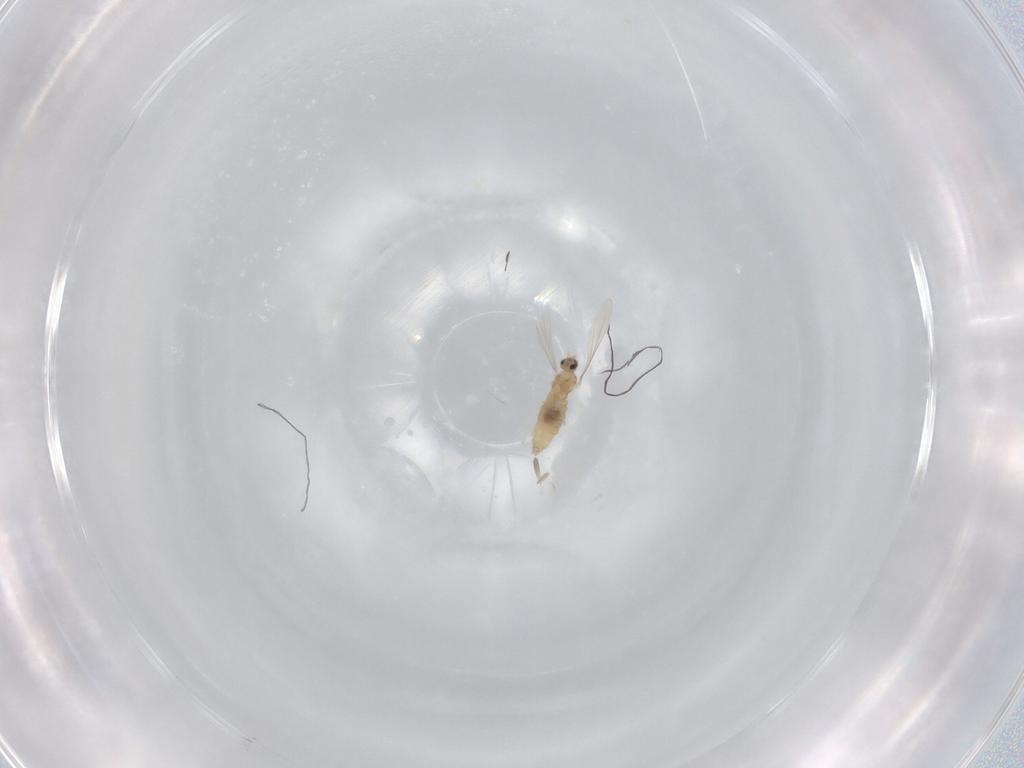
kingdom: Animalia
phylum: Arthropoda
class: Insecta
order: Diptera
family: Cecidomyiidae
